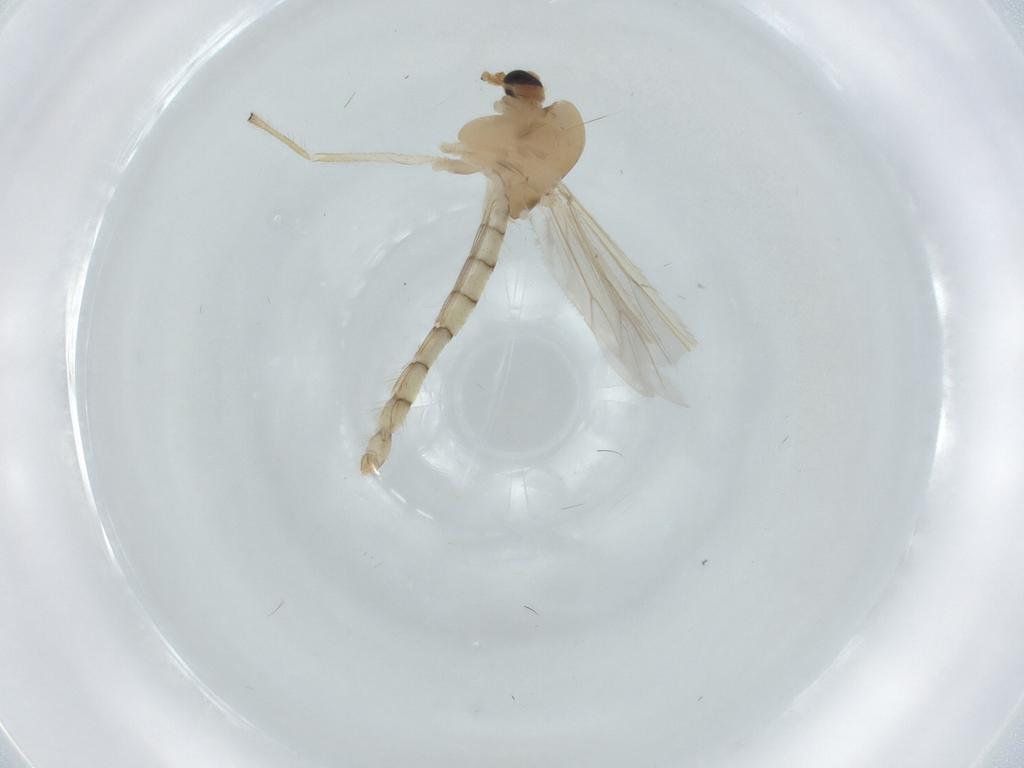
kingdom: Animalia
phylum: Arthropoda
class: Insecta
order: Diptera
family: Chironomidae
